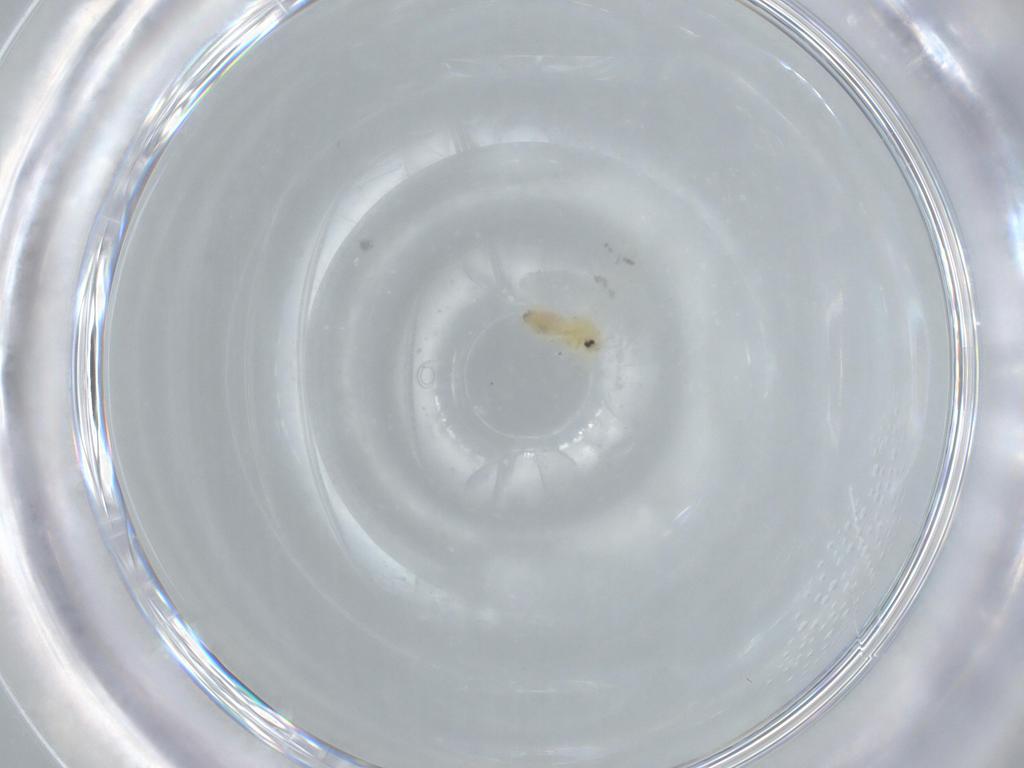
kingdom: Animalia
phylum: Arthropoda
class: Insecta
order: Hemiptera
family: Aleyrodidae
